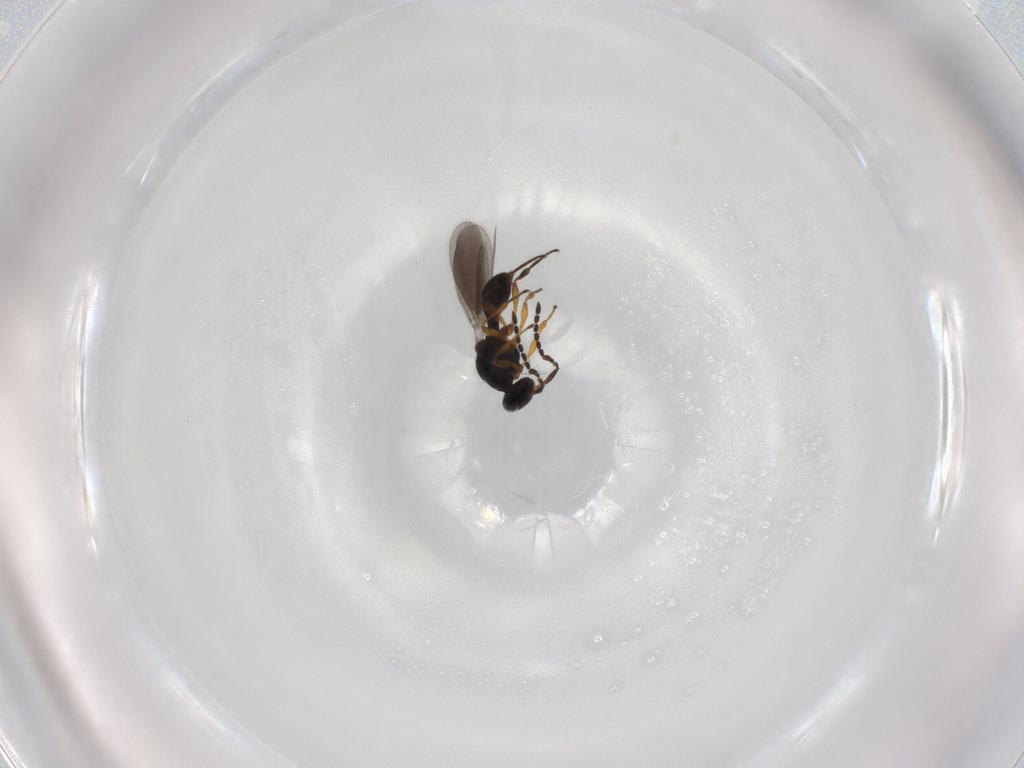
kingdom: Animalia
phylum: Arthropoda
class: Insecta
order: Hymenoptera
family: Platygastridae
